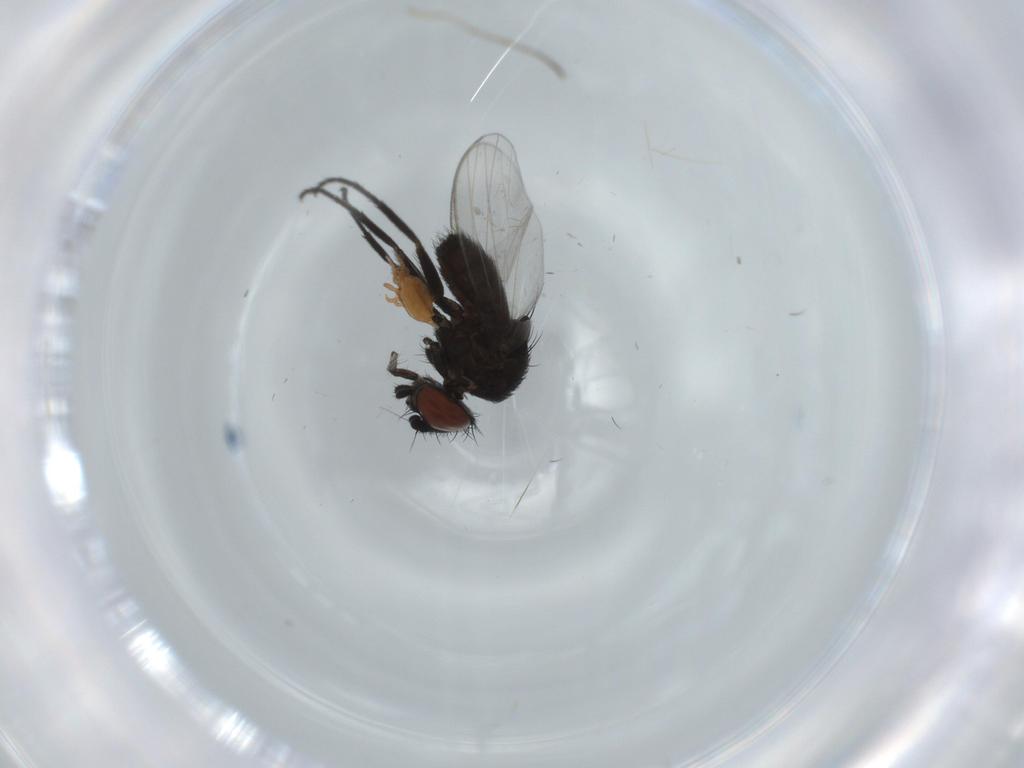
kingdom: Animalia
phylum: Arthropoda
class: Insecta
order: Diptera
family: Milichiidae
